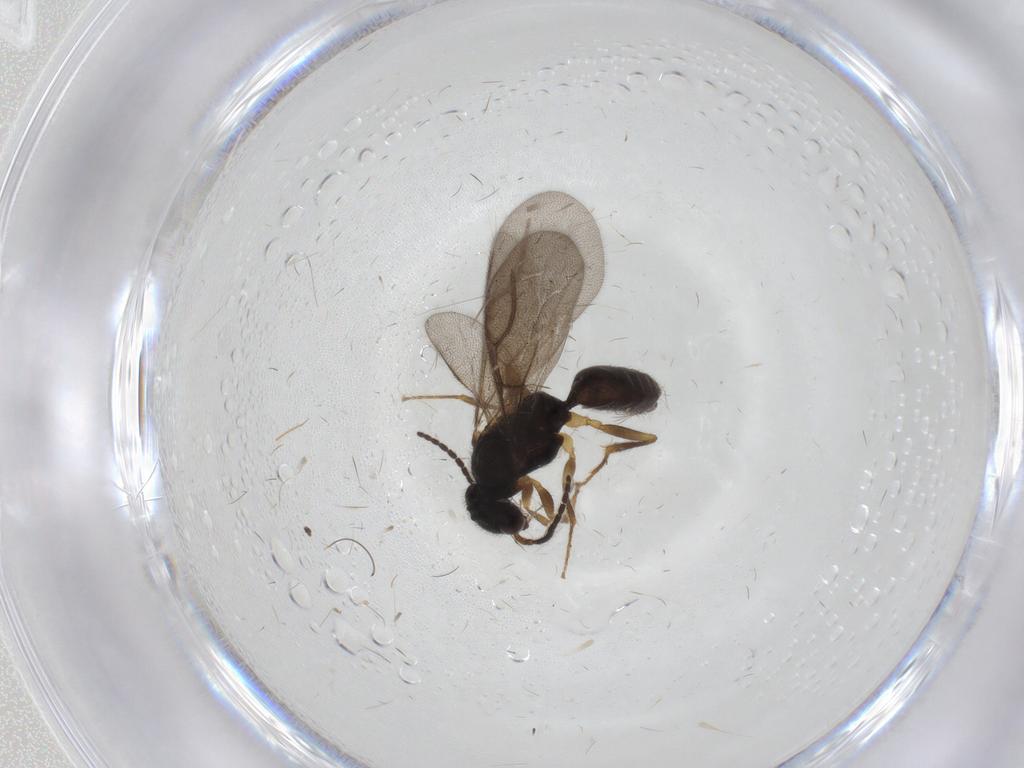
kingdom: Animalia
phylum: Arthropoda
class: Insecta
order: Hymenoptera
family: Bethylidae
